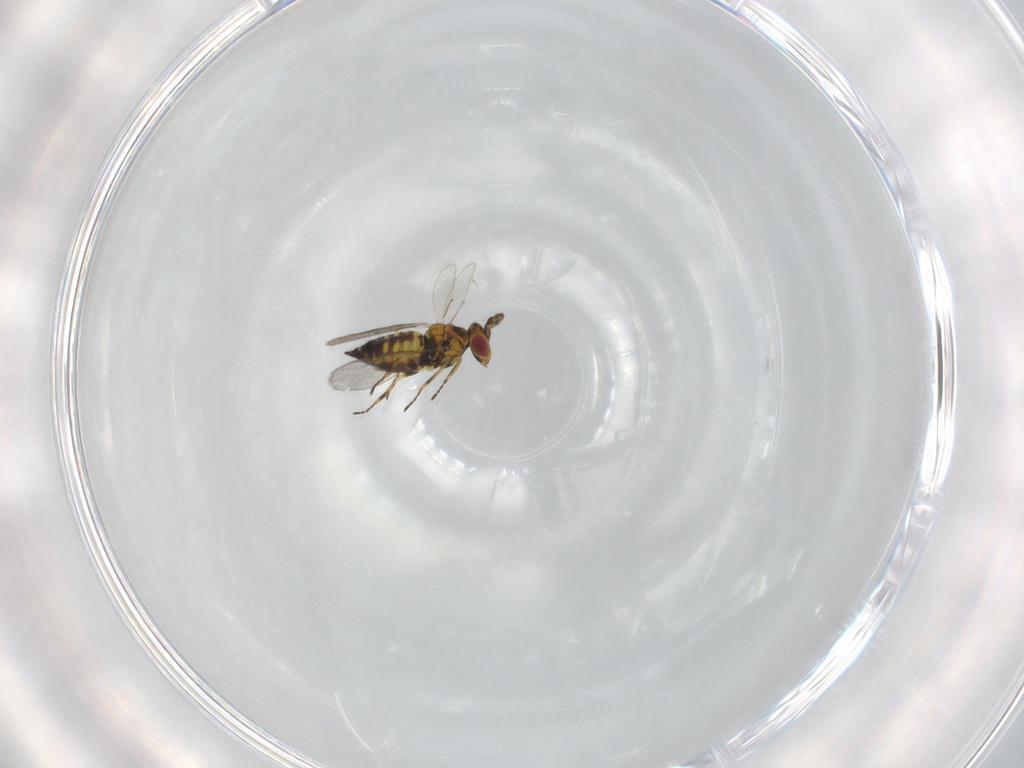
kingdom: Animalia
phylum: Arthropoda
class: Insecta
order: Hymenoptera
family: Eulophidae
